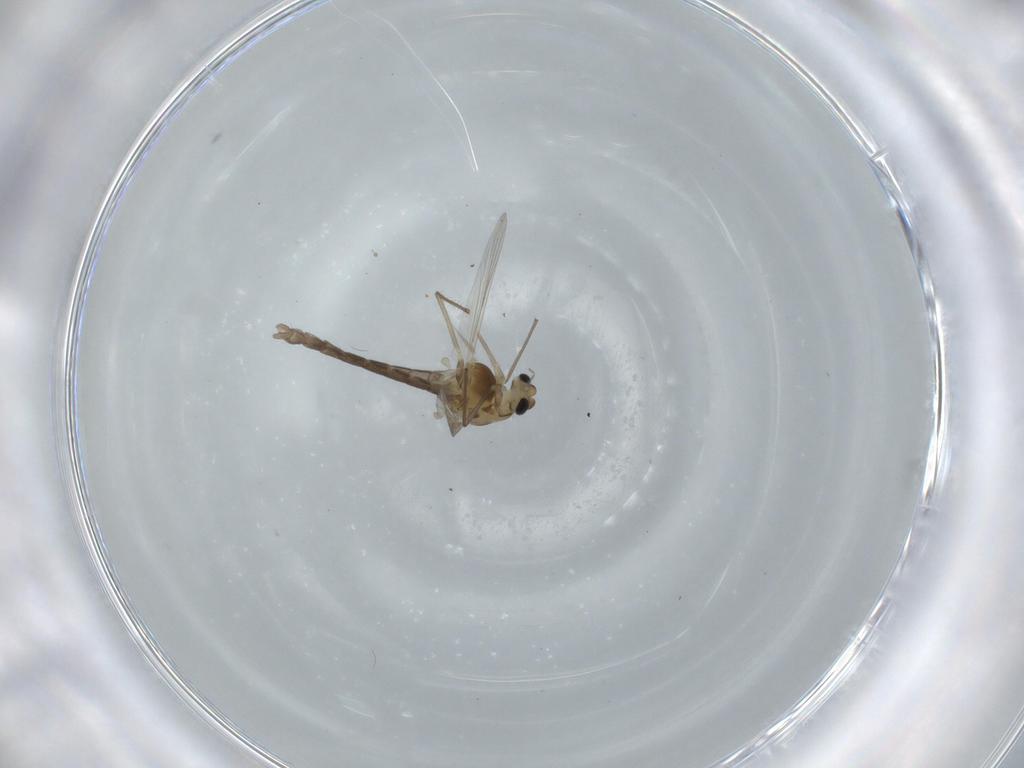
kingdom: Animalia
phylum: Arthropoda
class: Insecta
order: Diptera
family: Chironomidae
